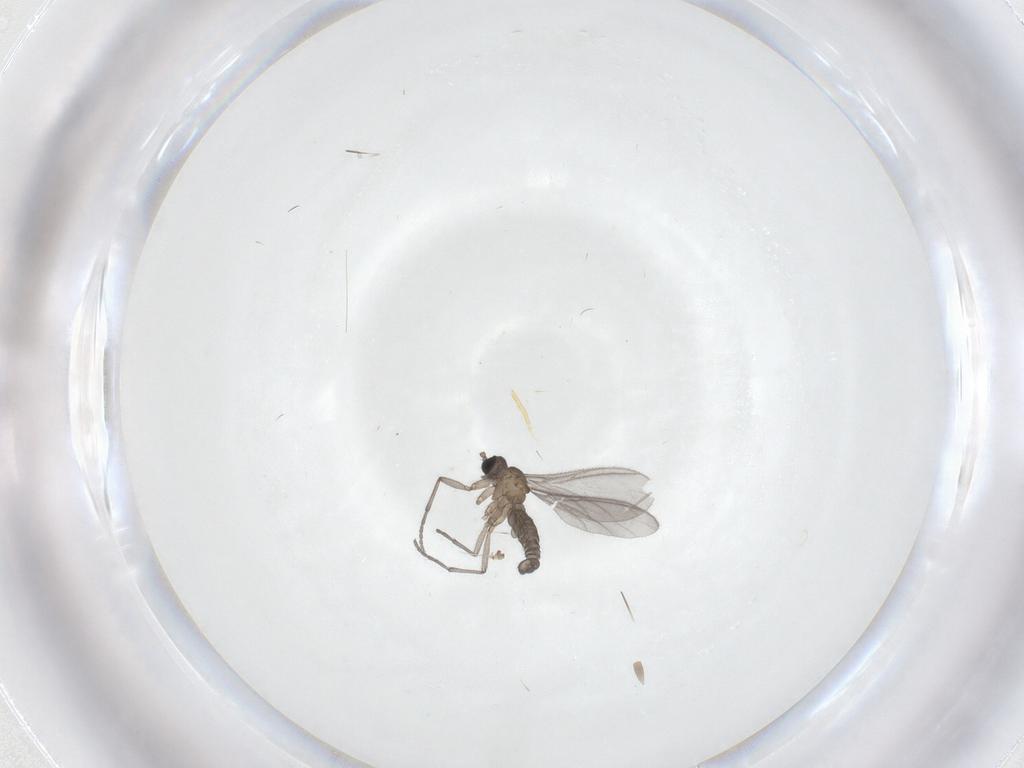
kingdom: Animalia
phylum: Arthropoda
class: Insecta
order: Diptera
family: Sciaridae
